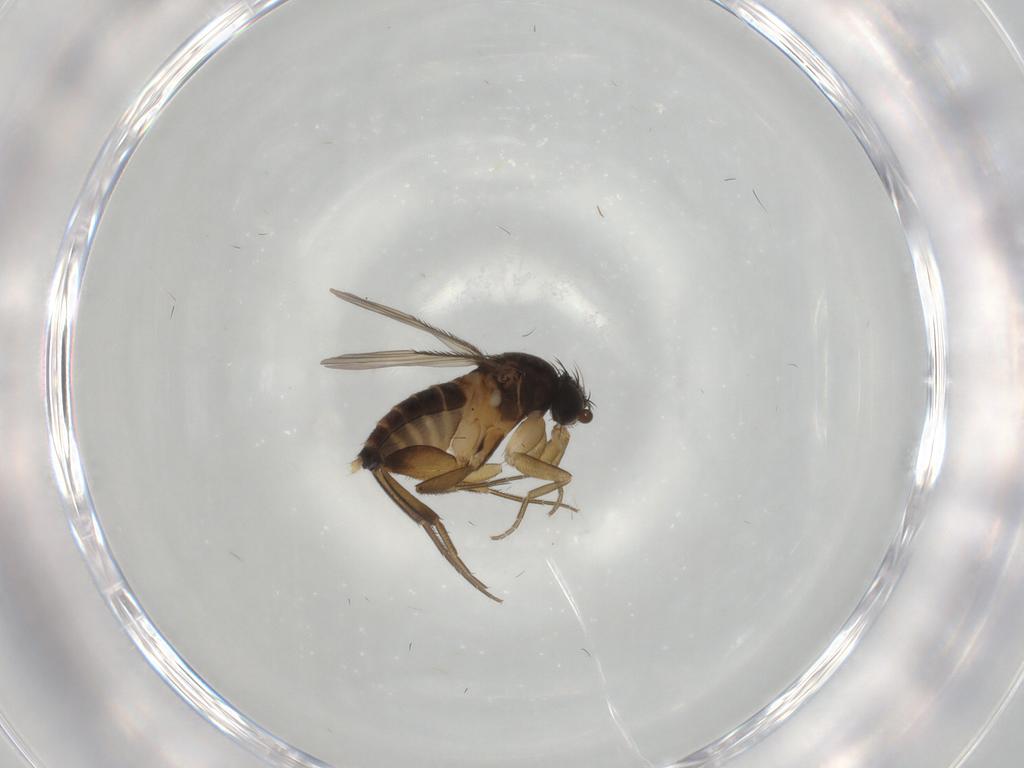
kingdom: Animalia
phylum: Arthropoda
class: Insecta
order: Diptera
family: Phoridae
